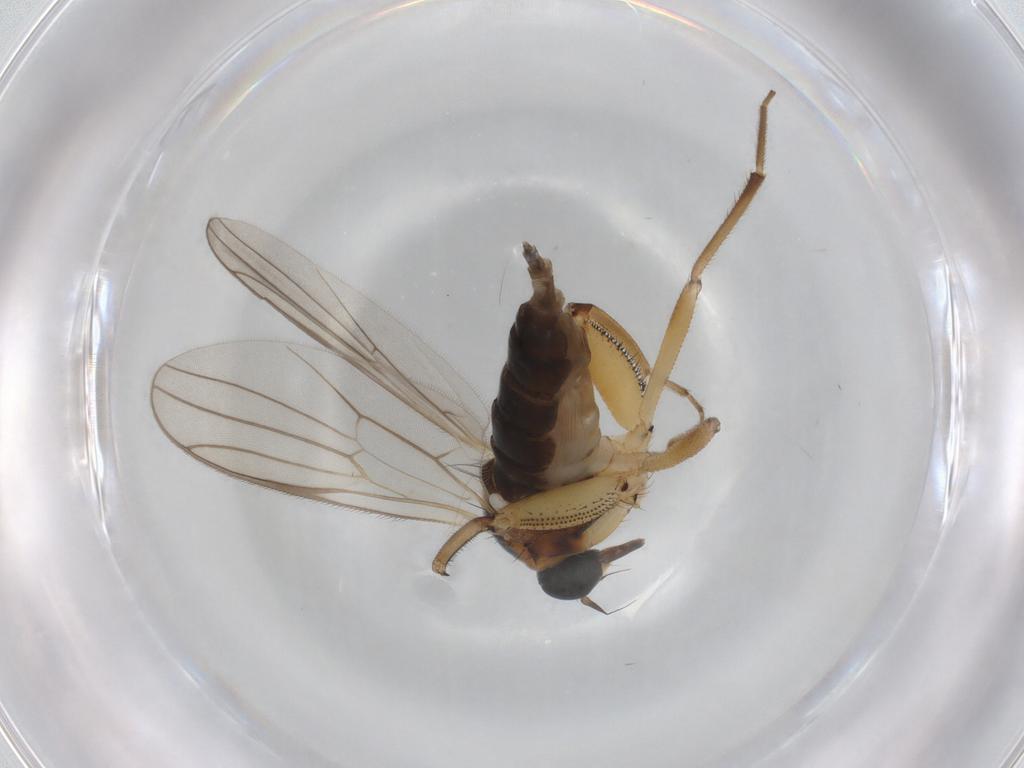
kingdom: Animalia
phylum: Arthropoda
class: Insecta
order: Diptera
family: Hybotidae
